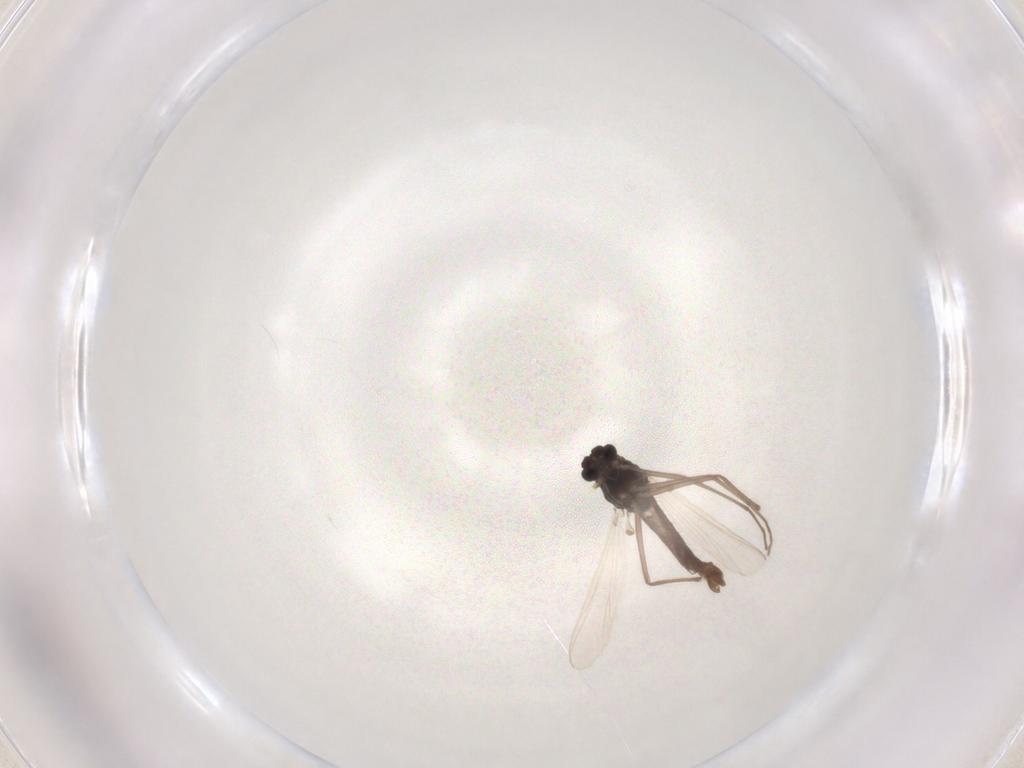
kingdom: Animalia
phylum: Arthropoda
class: Insecta
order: Diptera
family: Chironomidae
